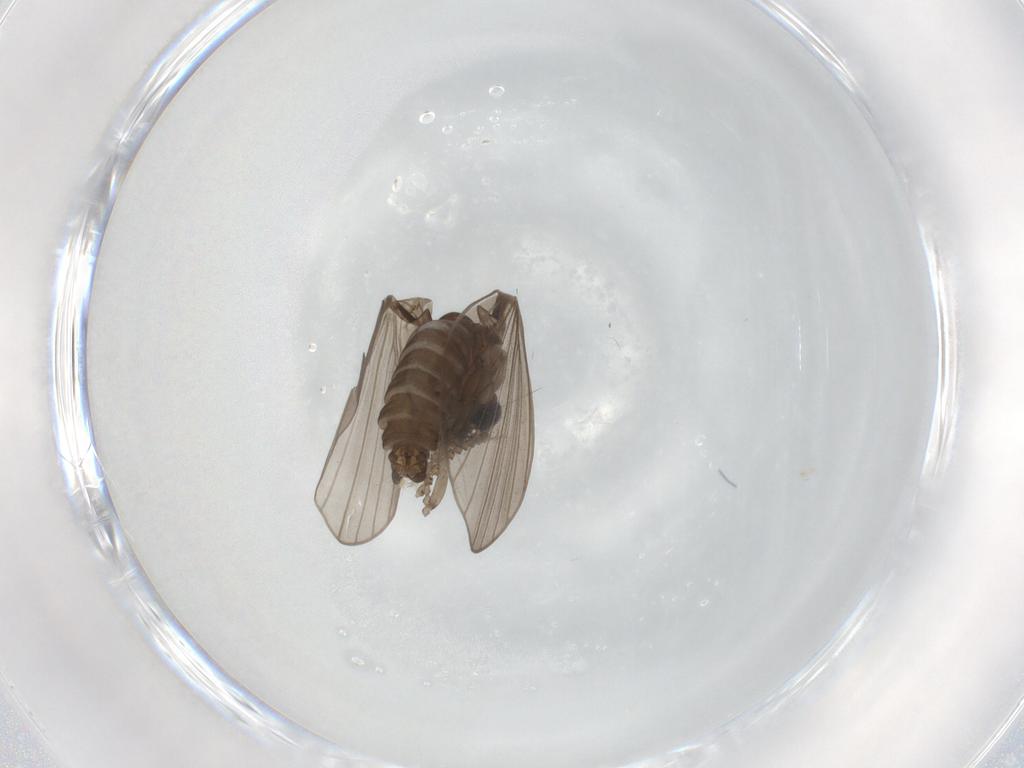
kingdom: Animalia
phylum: Arthropoda
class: Insecta
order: Diptera
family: Psychodidae
